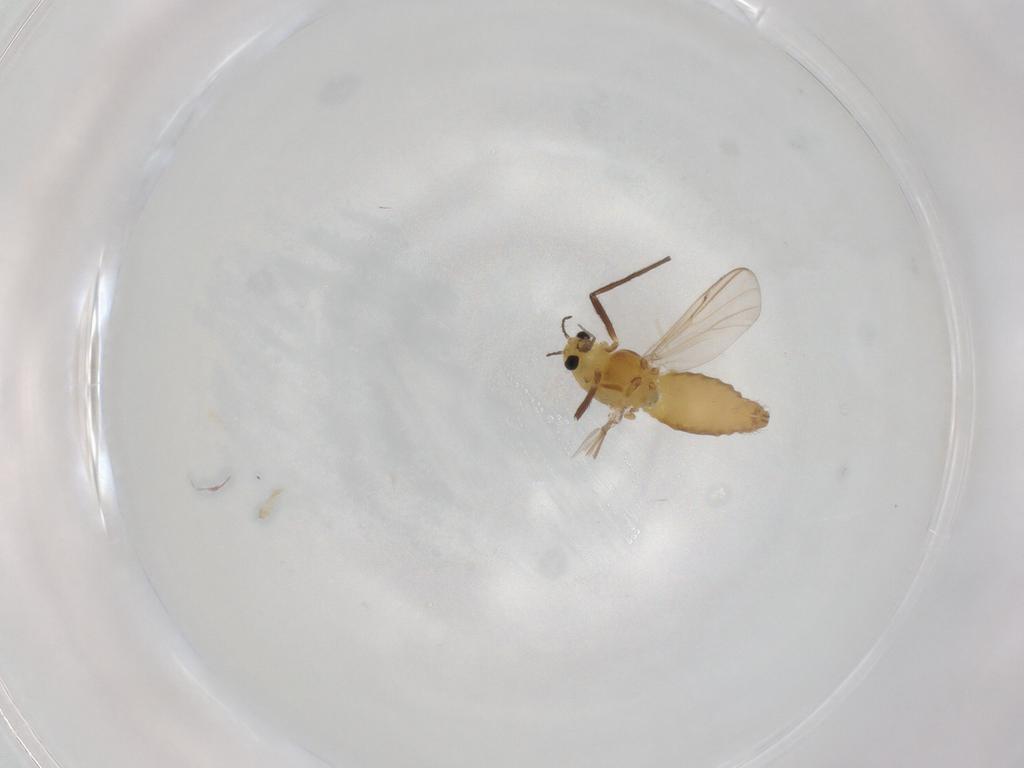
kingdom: Animalia
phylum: Arthropoda
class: Insecta
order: Diptera
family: Chironomidae
